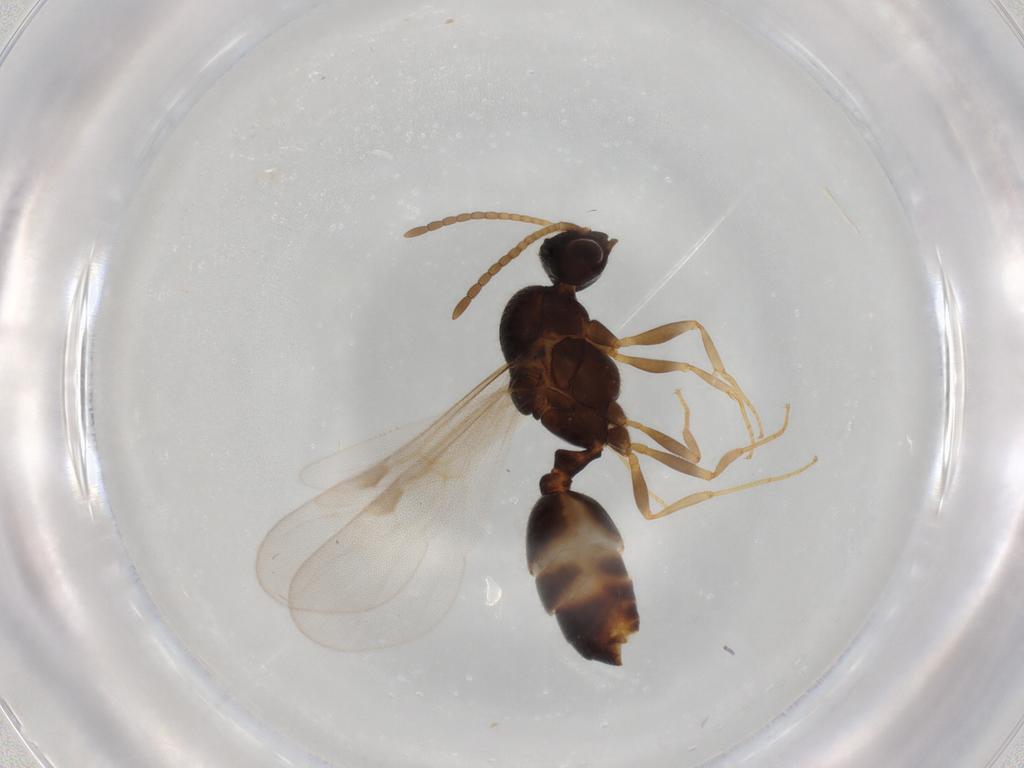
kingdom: Animalia
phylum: Arthropoda
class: Insecta
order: Hymenoptera
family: Formicidae
